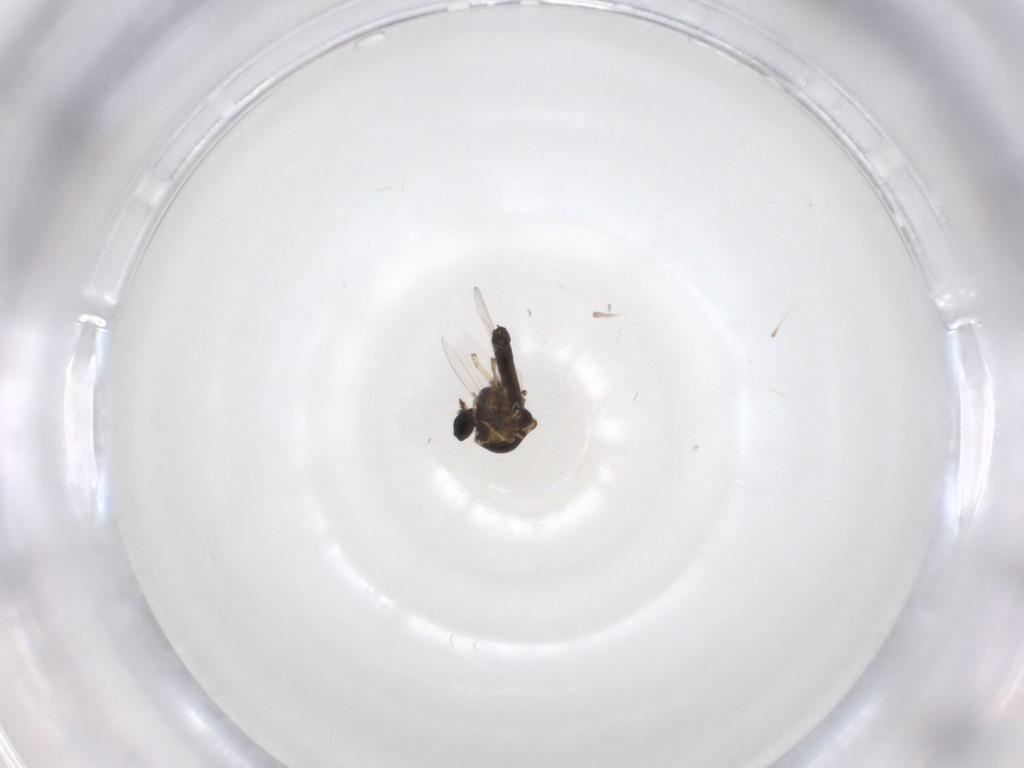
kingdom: Animalia
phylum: Arthropoda
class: Insecta
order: Diptera
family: Ceratopogonidae
